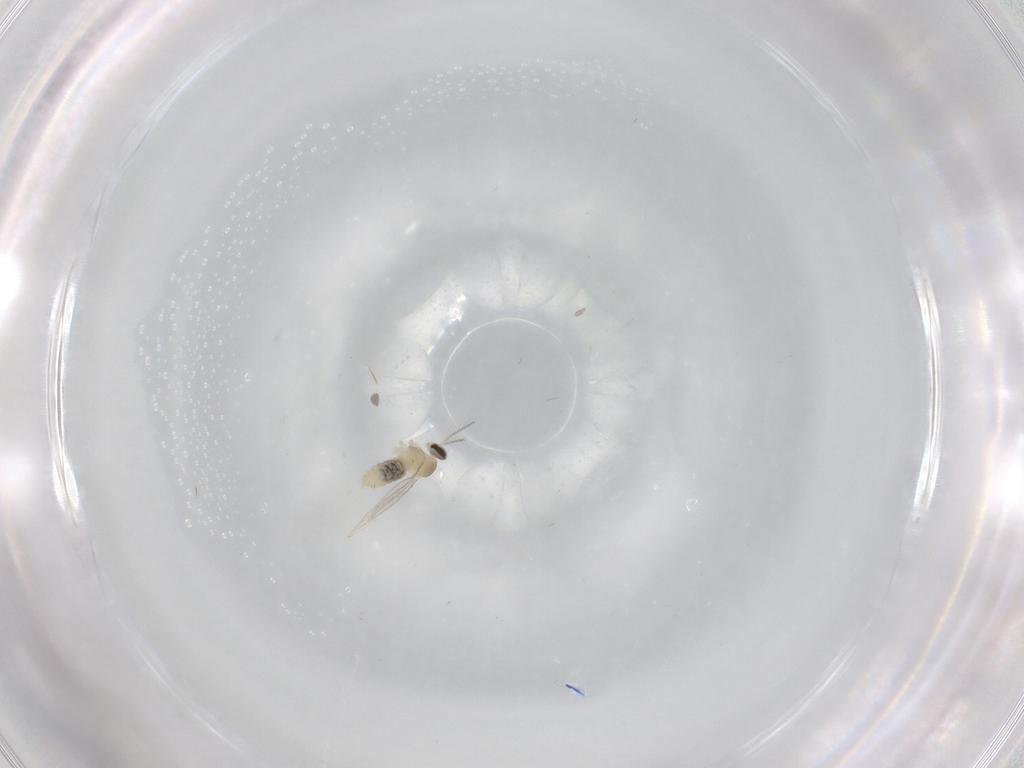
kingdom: Animalia
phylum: Arthropoda
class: Insecta
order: Diptera
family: Cecidomyiidae
